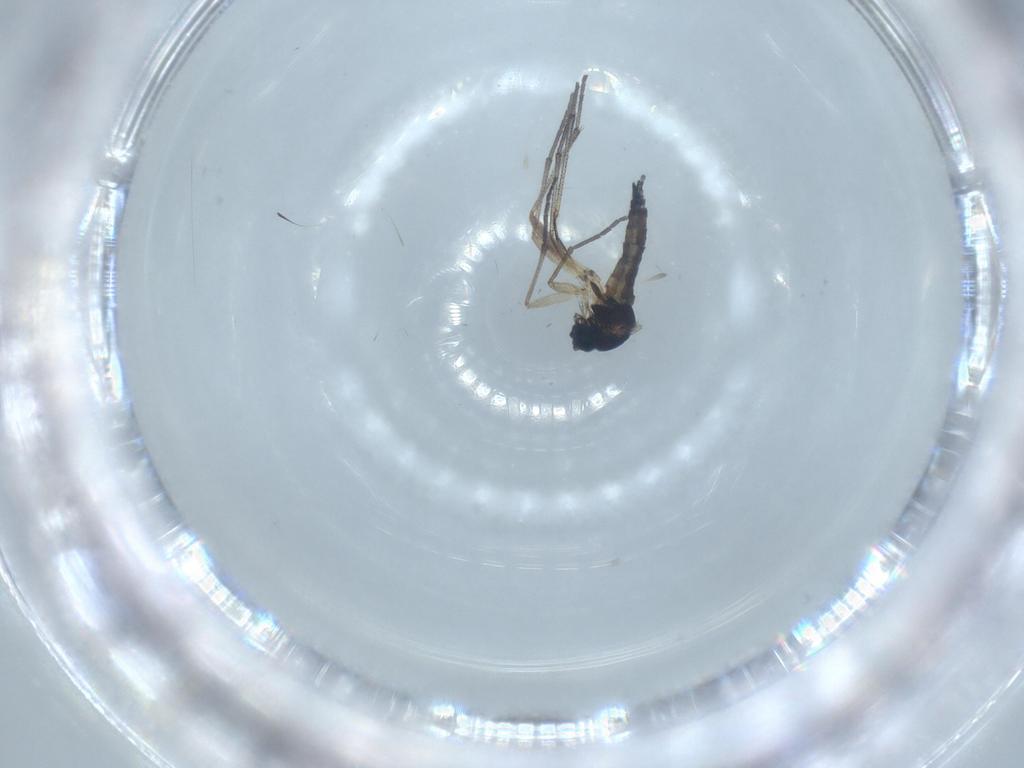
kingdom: Animalia
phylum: Arthropoda
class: Insecta
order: Diptera
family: Sciaridae
